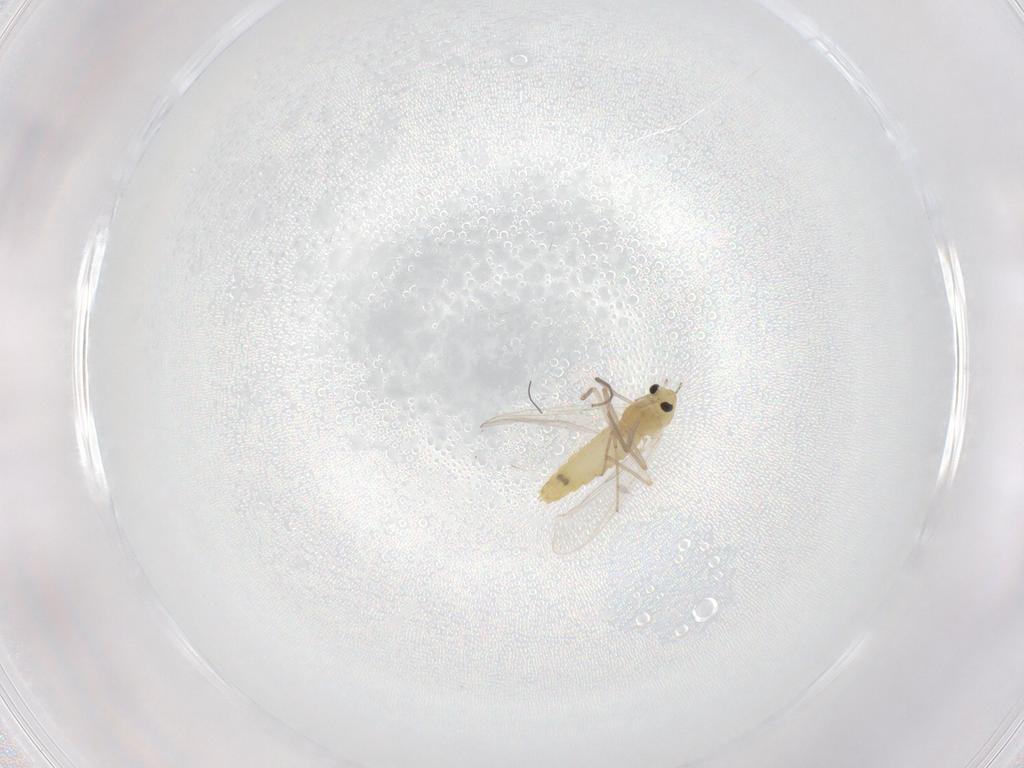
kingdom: Animalia
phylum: Arthropoda
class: Insecta
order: Diptera
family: Chironomidae
